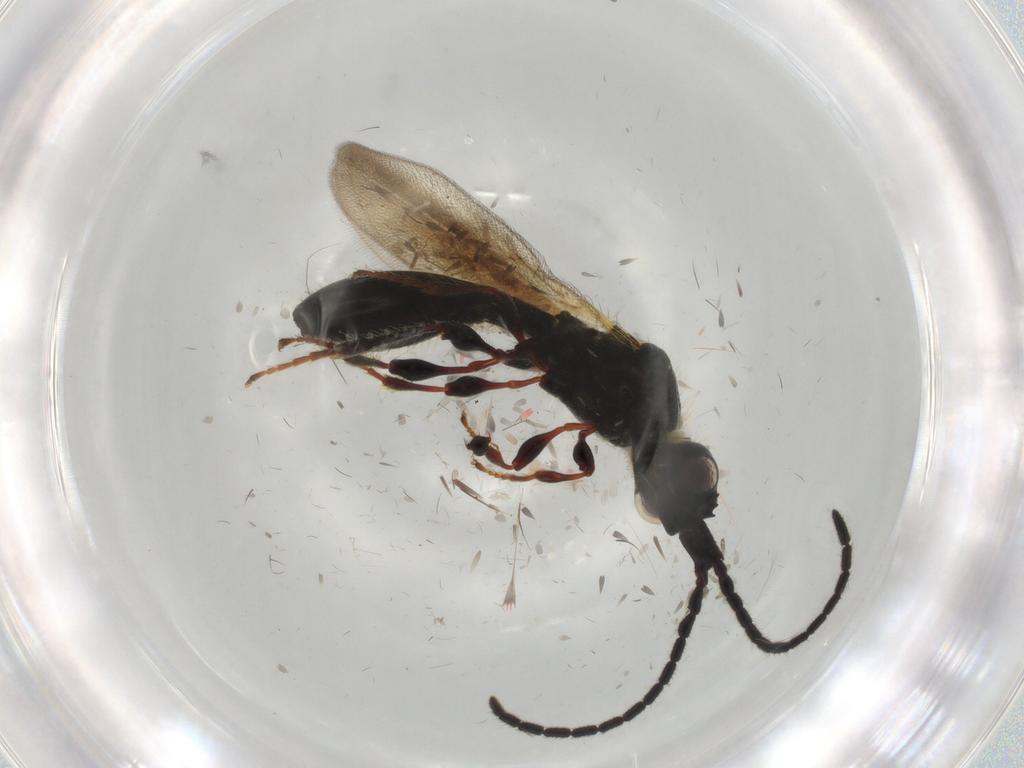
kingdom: Animalia
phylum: Arthropoda
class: Insecta
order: Hymenoptera
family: Diapriidae
